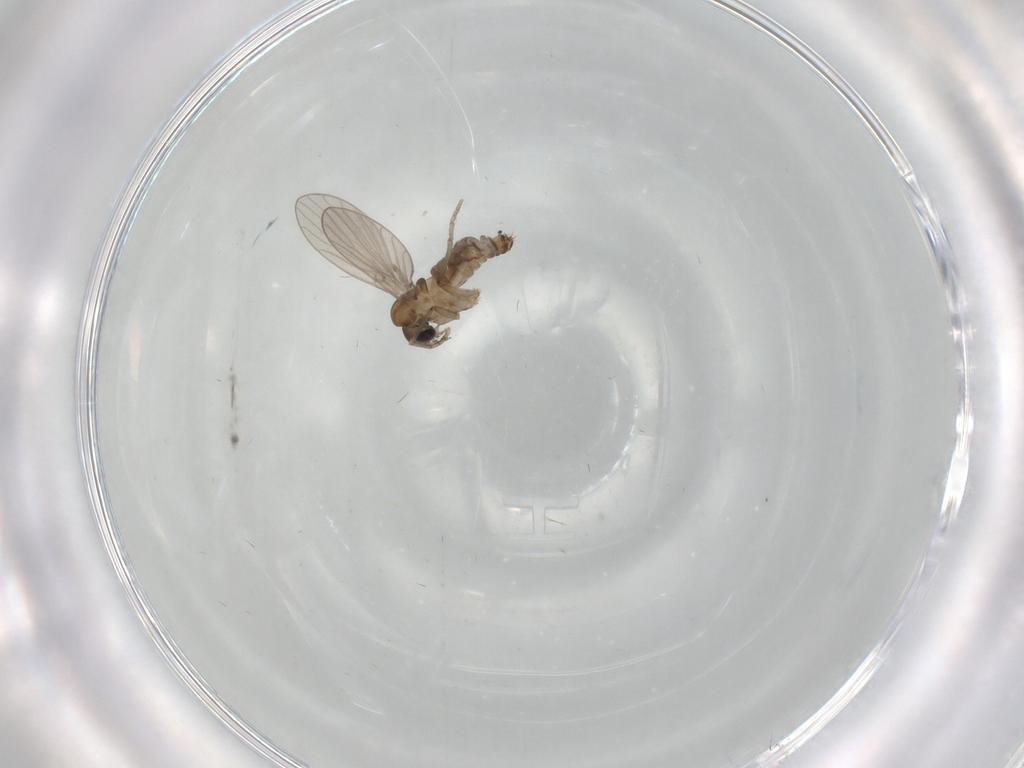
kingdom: Animalia
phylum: Arthropoda
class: Insecta
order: Diptera
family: Psychodidae
